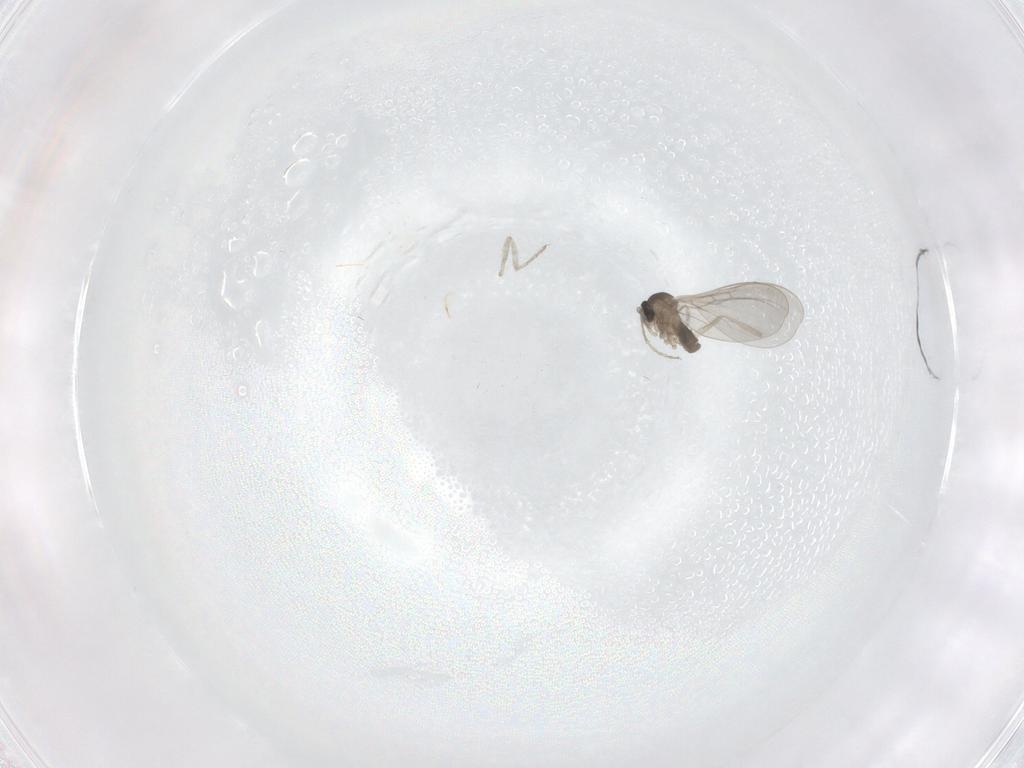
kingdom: Animalia
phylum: Arthropoda
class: Insecta
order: Diptera
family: Cecidomyiidae
